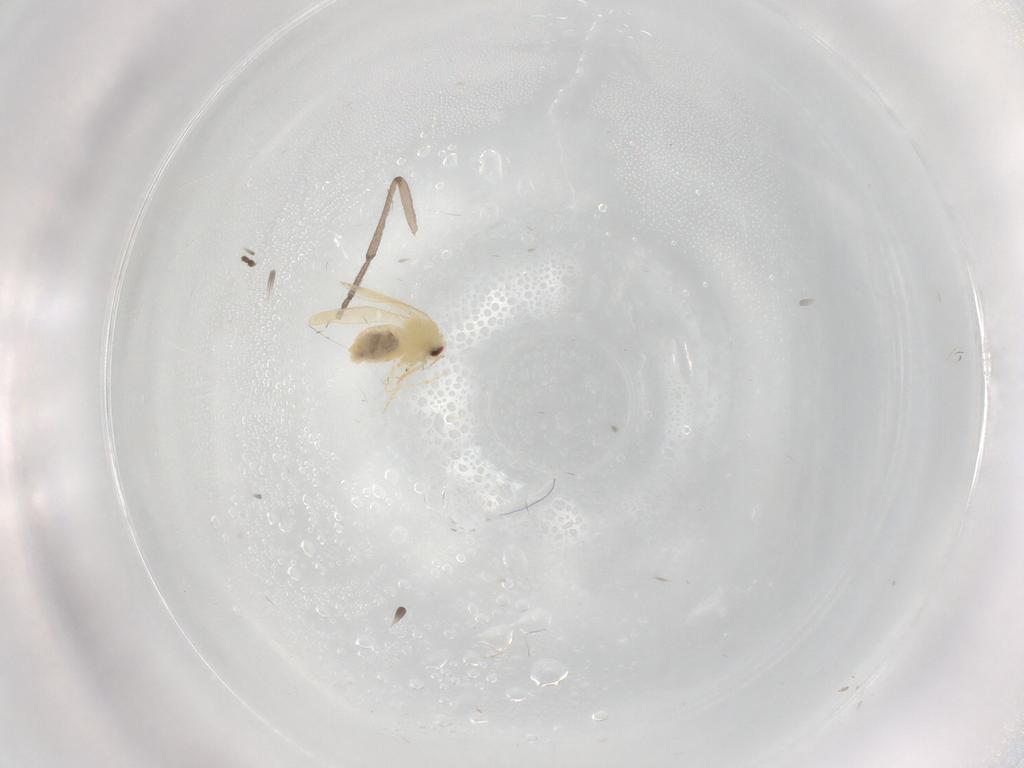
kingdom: Animalia
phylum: Arthropoda
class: Insecta
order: Hemiptera
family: Aleyrodidae
